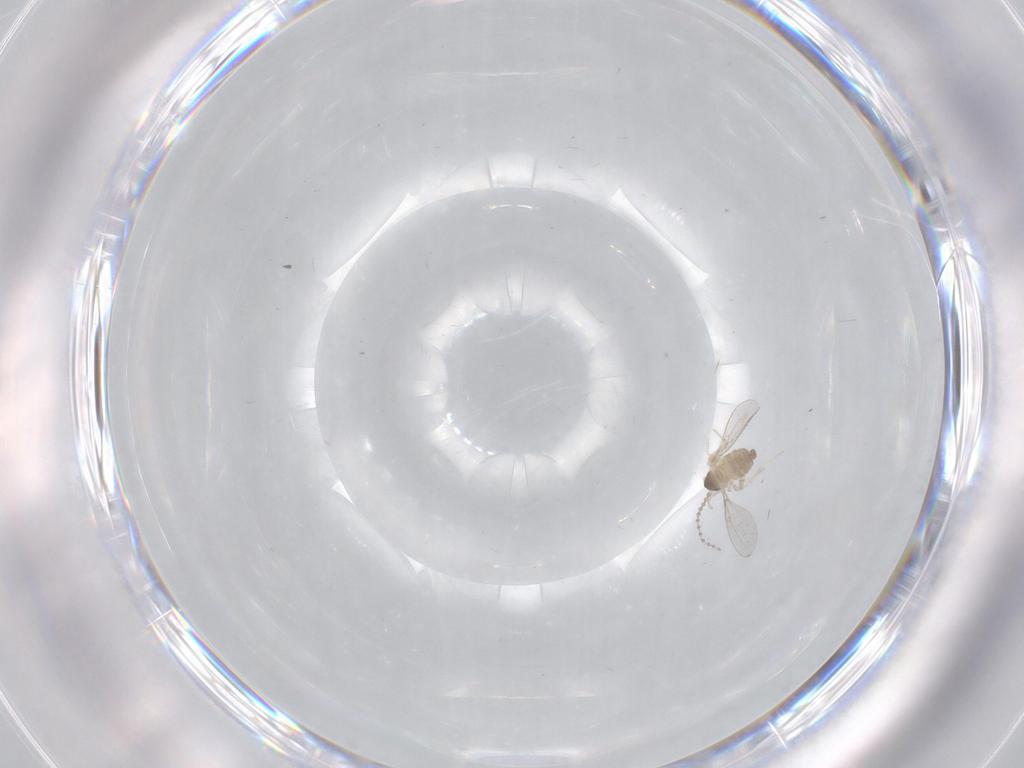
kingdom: Animalia
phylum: Arthropoda
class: Insecta
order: Diptera
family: Cecidomyiidae
